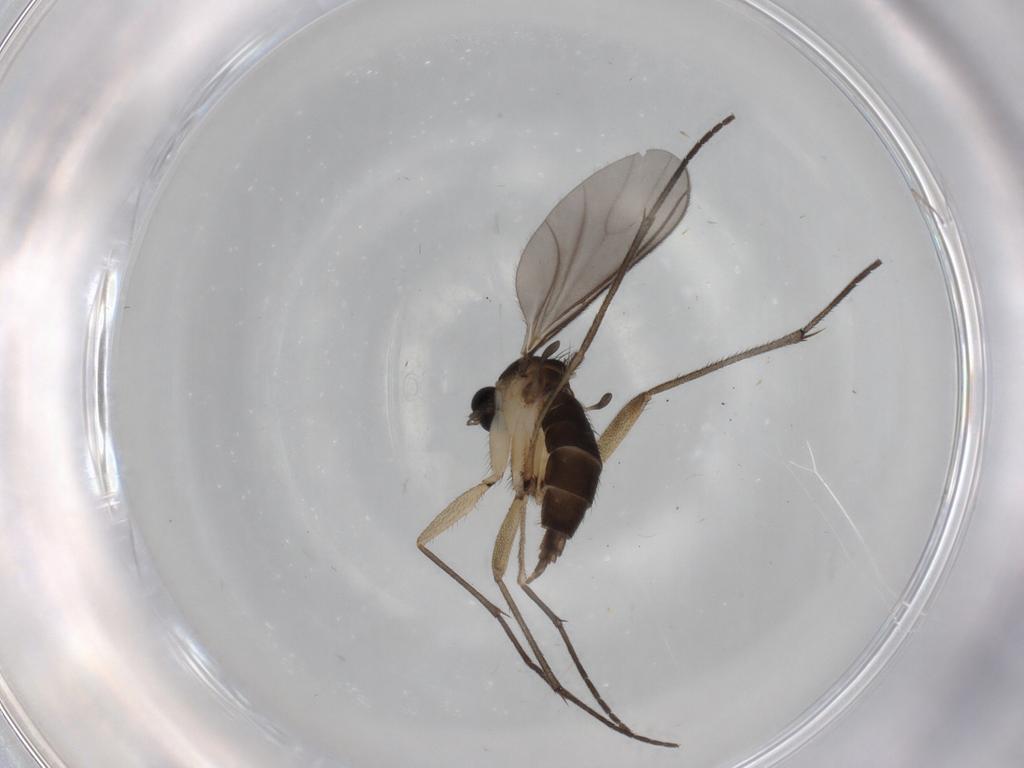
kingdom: Animalia
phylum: Arthropoda
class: Insecta
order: Diptera
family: Sciaridae
